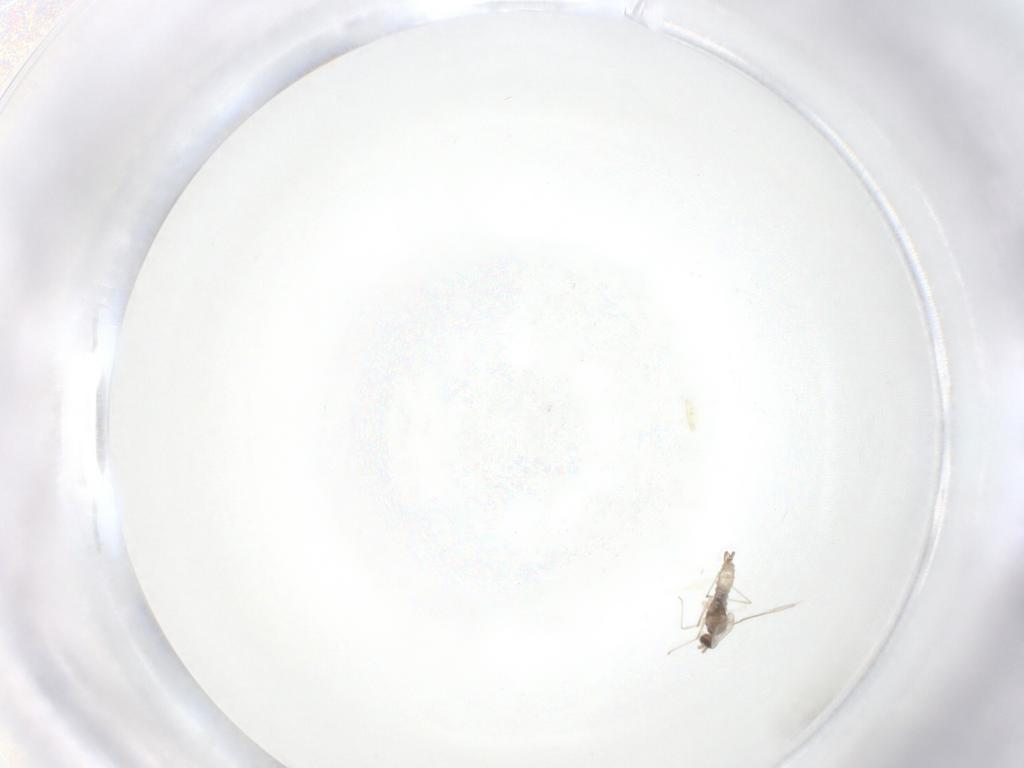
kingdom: Animalia
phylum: Arthropoda
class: Insecta
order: Diptera
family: Cecidomyiidae
